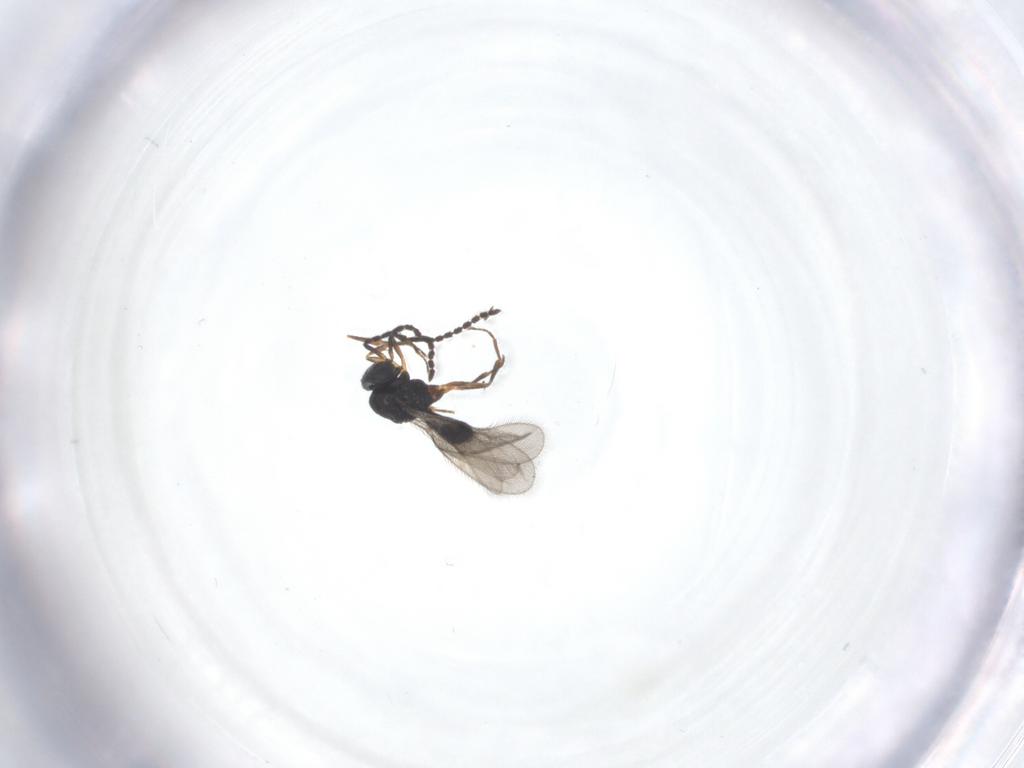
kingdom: Animalia
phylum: Arthropoda
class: Insecta
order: Hymenoptera
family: Scelionidae
